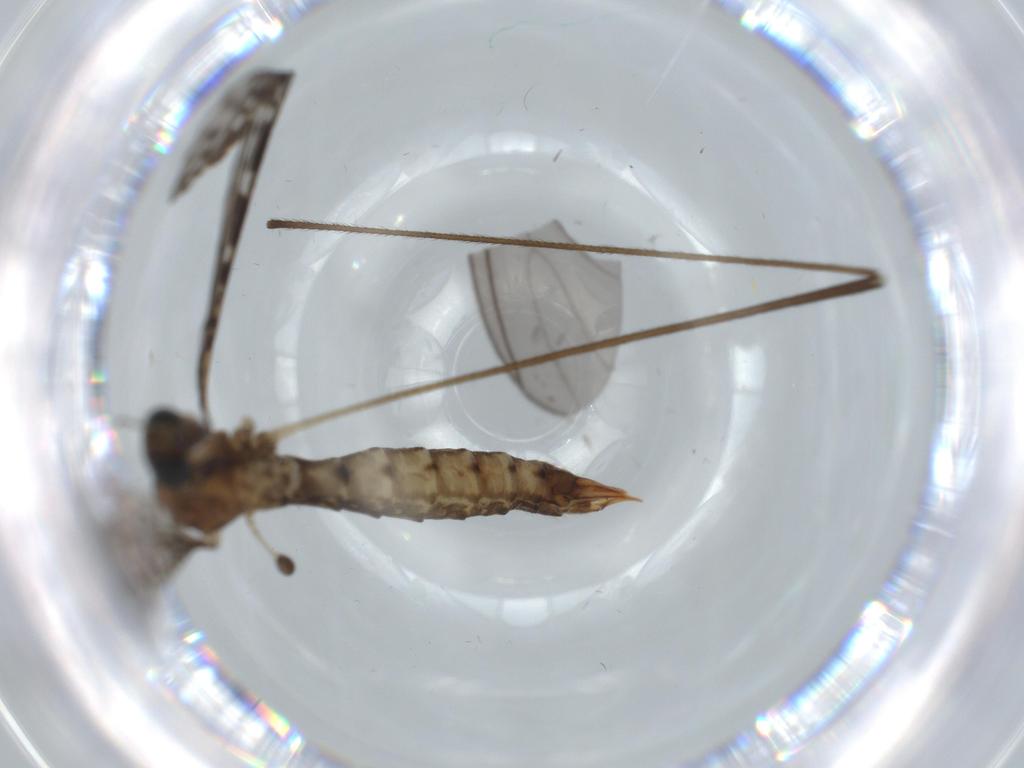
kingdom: Animalia
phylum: Arthropoda
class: Insecta
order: Diptera
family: Sciaridae
